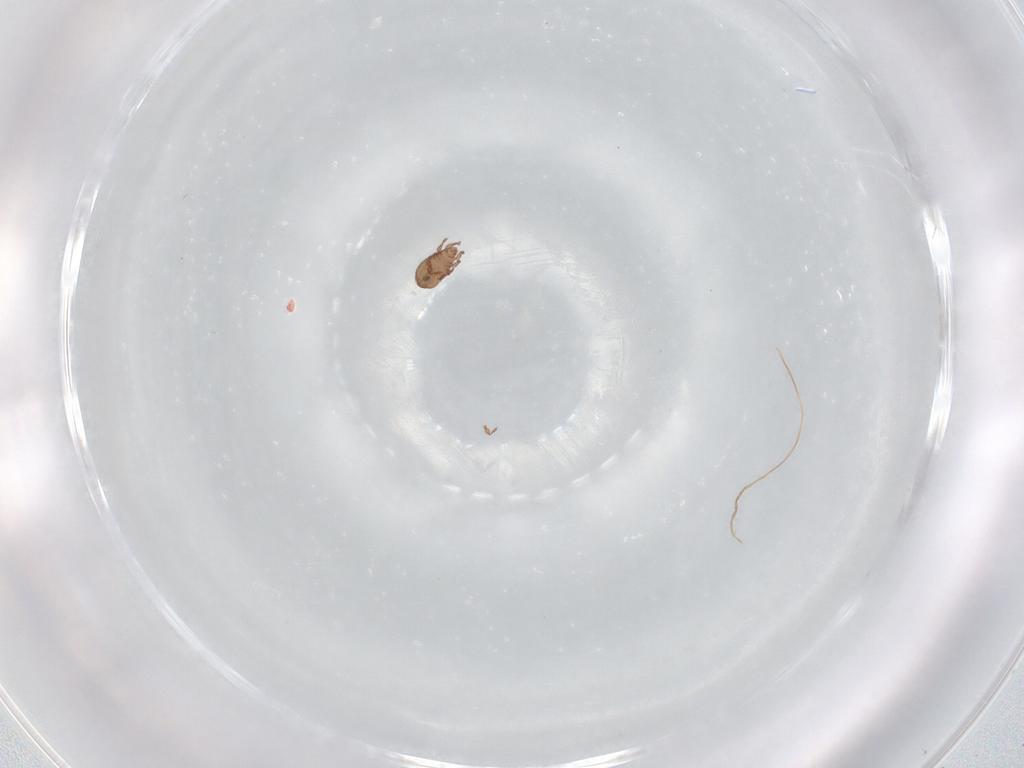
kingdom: Animalia
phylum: Arthropoda
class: Arachnida
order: Sarcoptiformes
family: Eremaeidae
